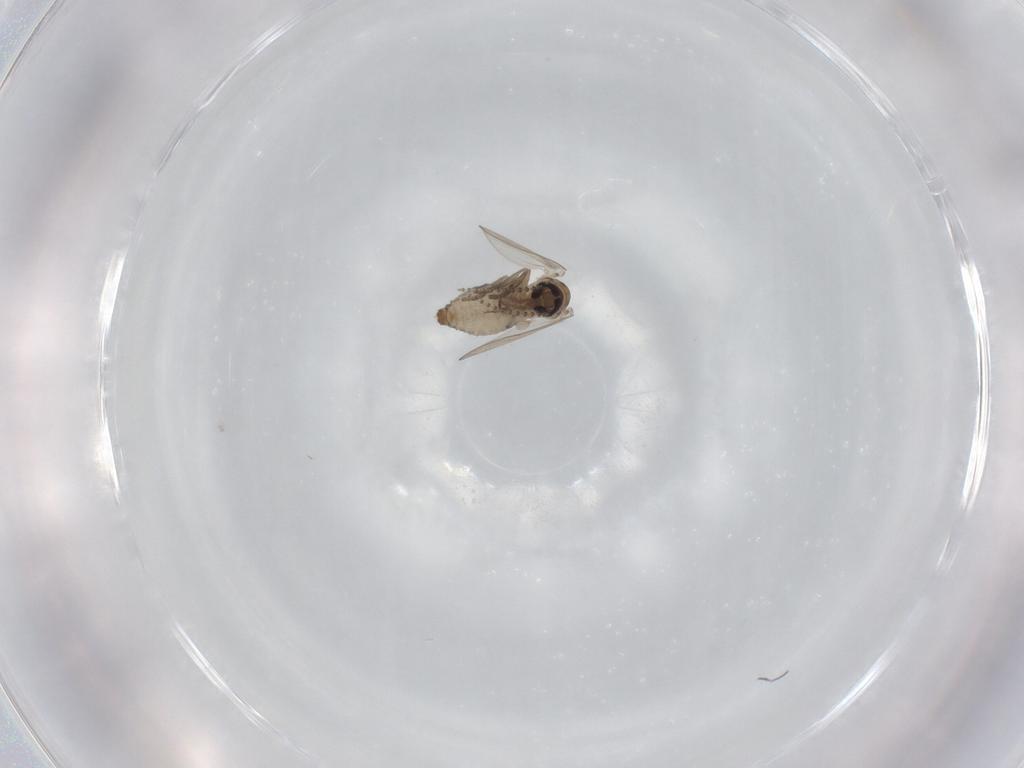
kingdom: Animalia
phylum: Arthropoda
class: Insecta
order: Diptera
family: Psychodidae
